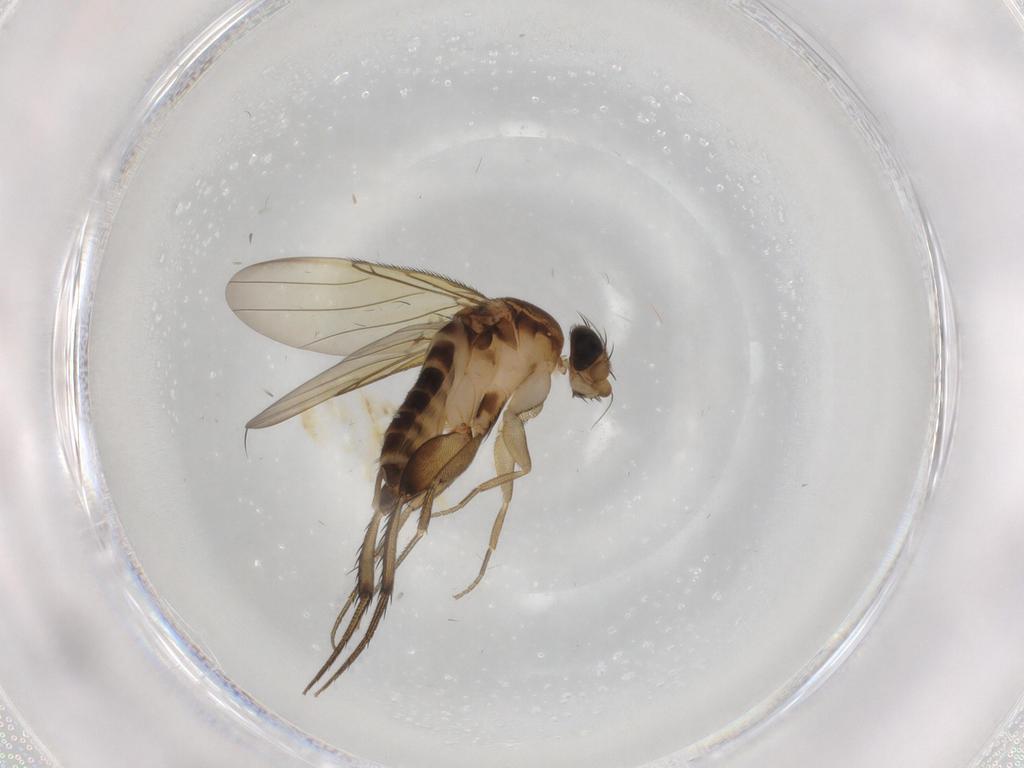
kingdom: Animalia
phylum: Arthropoda
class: Insecta
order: Diptera
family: Phoridae
